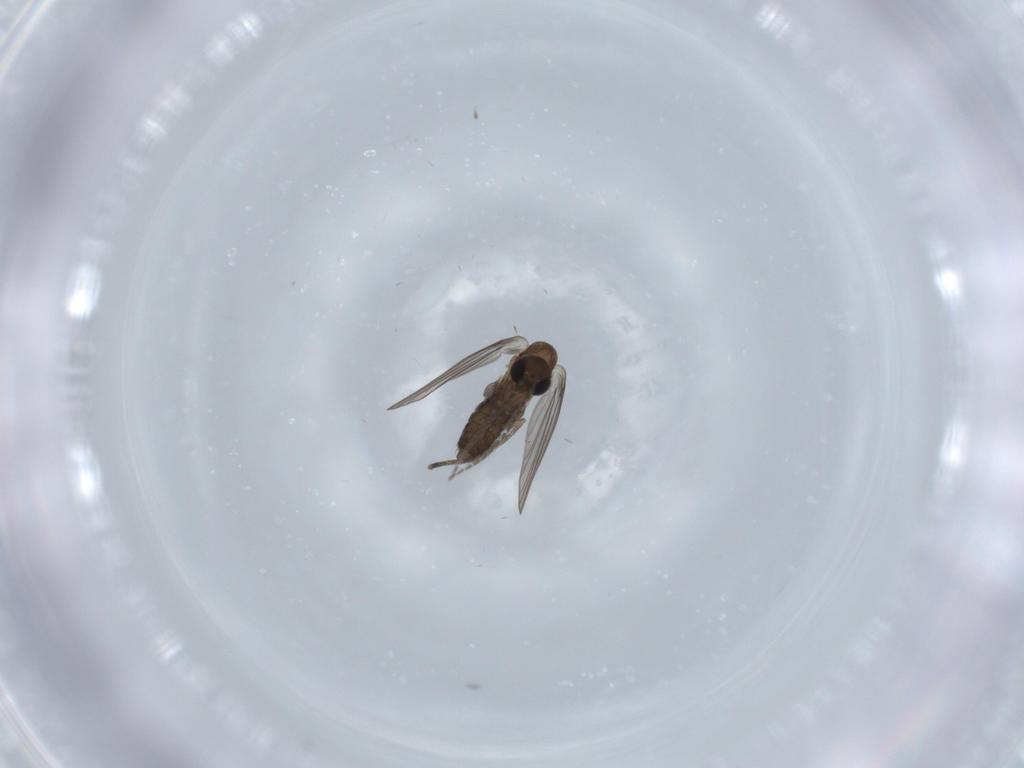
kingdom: Animalia
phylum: Arthropoda
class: Insecta
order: Diptera
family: Psychodidae
